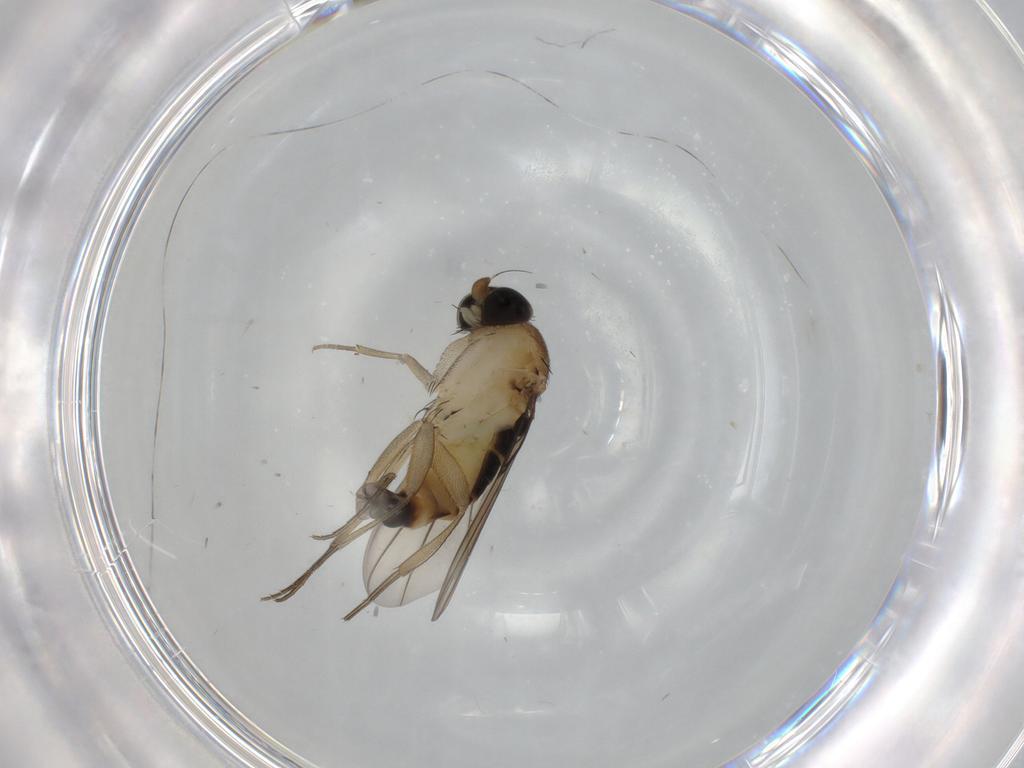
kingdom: Animalia
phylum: Arthropoda
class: Insecta
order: Diptera
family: Phoridae
